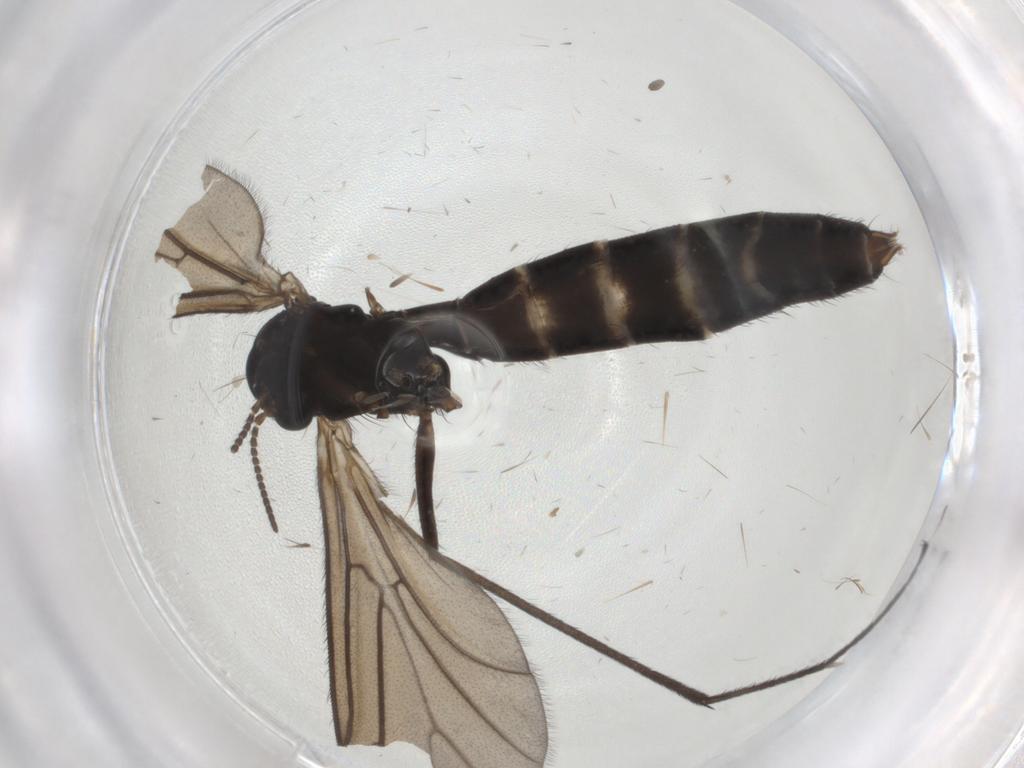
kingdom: Animalia
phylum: Arthropoda
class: Insecta
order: Diptera
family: Ditomyiidae
